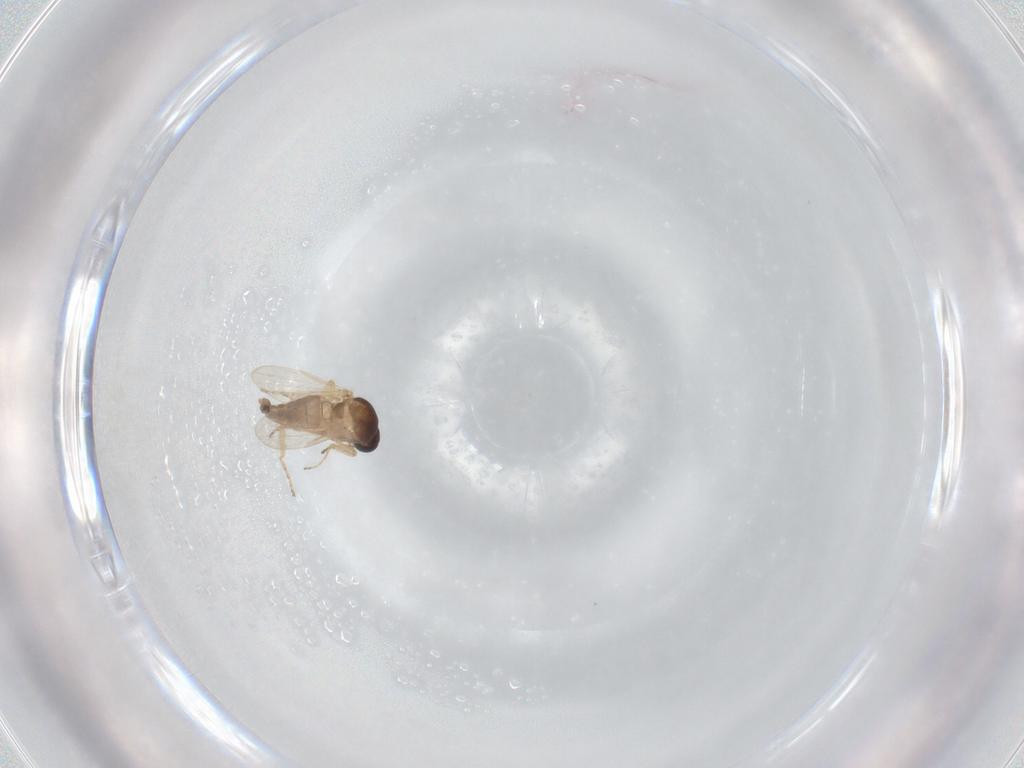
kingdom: Animalia
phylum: Arthropoda
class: Insecta
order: Diptera
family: Ceratopogonidae
